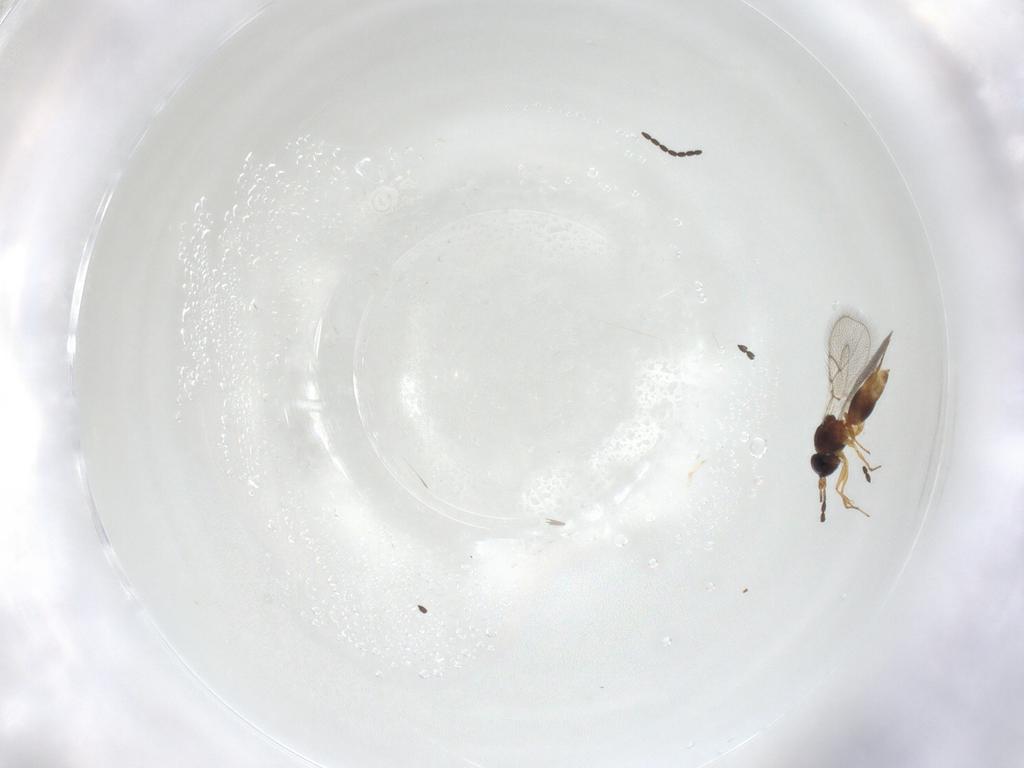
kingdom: Animalia
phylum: Arthropoda
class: Insecta
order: Hymenoptera
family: Figitidae
